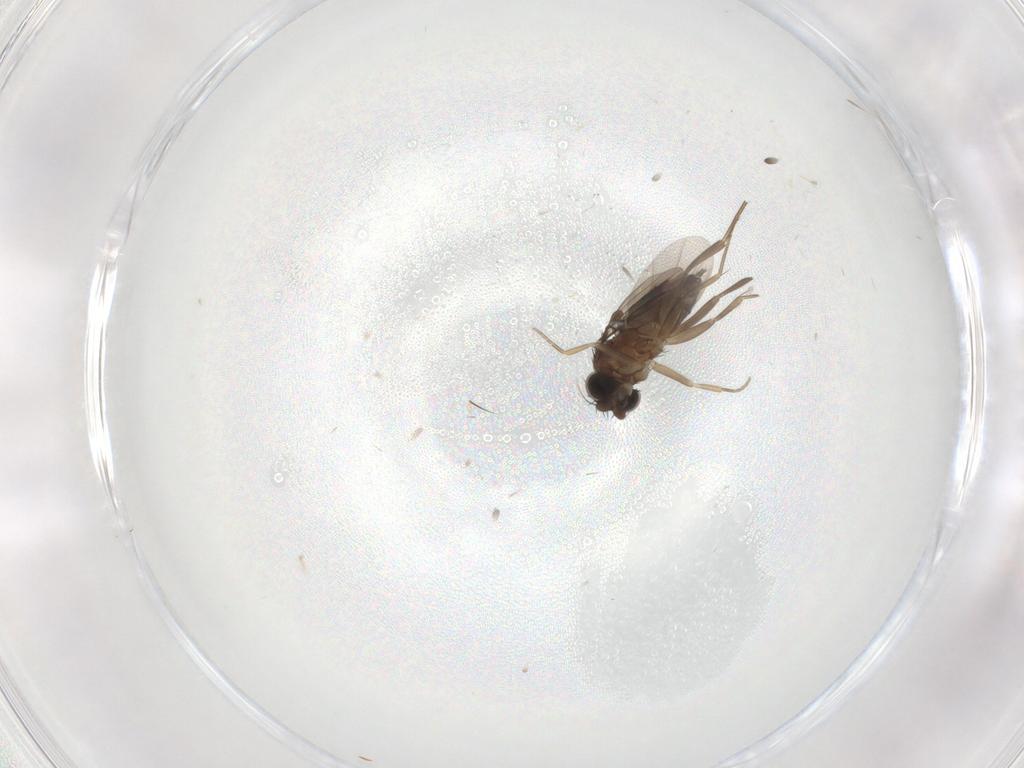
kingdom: Animalia
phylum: Arthropoda
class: Insecta
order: Diptera
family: Phoridae
